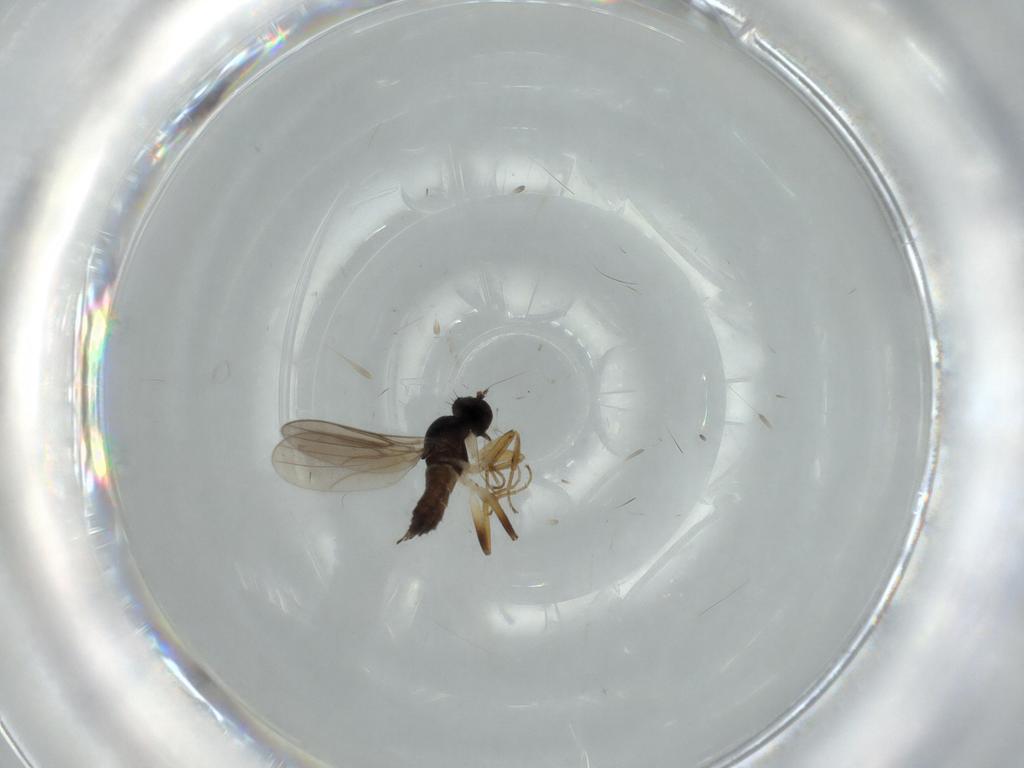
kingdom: Animalia
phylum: Arthropoda
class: Insecta
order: Diptera
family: Hybotidae
